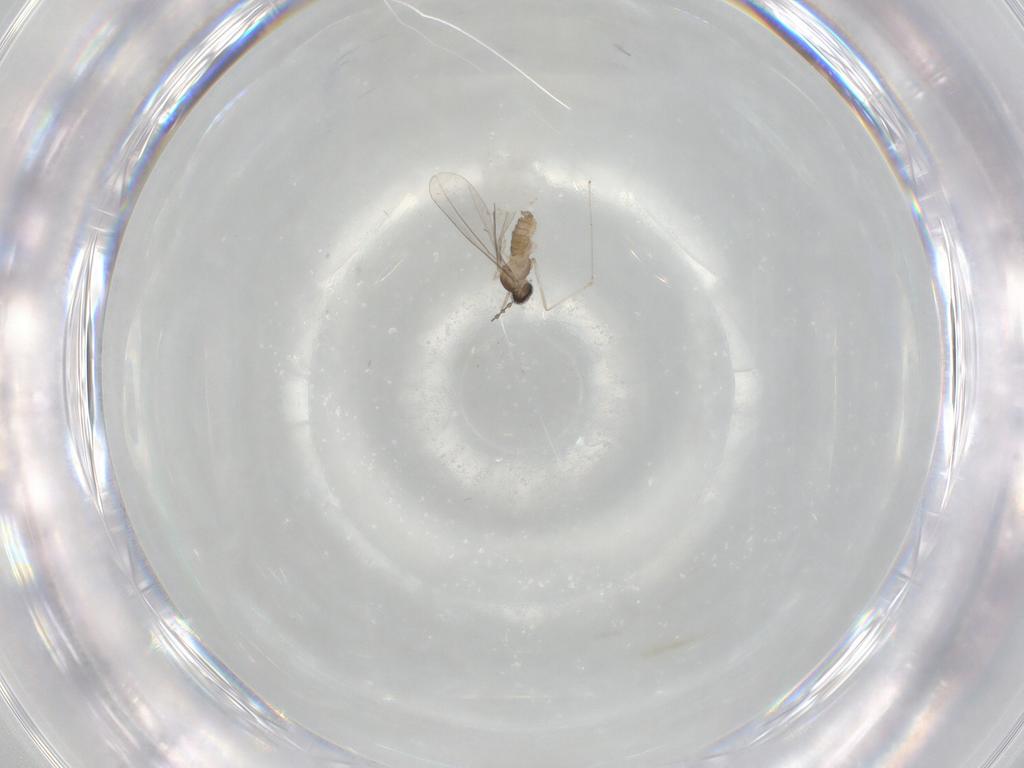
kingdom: Animalia
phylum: Arthropoda
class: Insecta
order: Diptera
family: Cecidomyiidae
